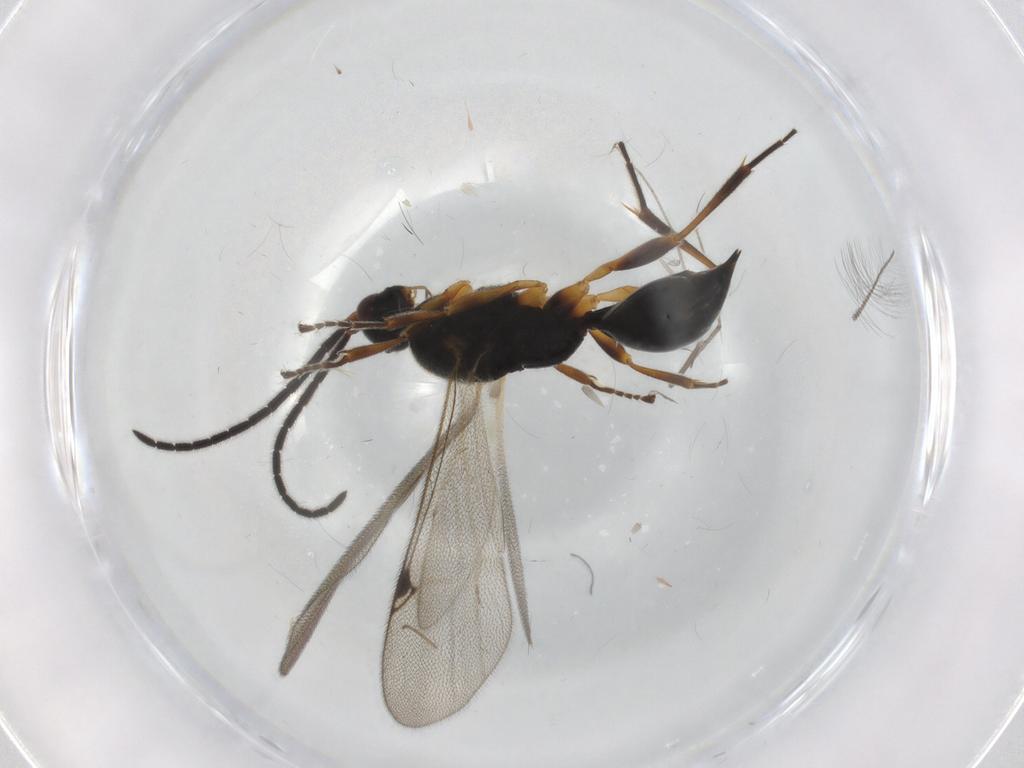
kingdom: Animalia
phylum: Arthropoda
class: Insecta
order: Hymenoptera
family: Proctotrupidae
